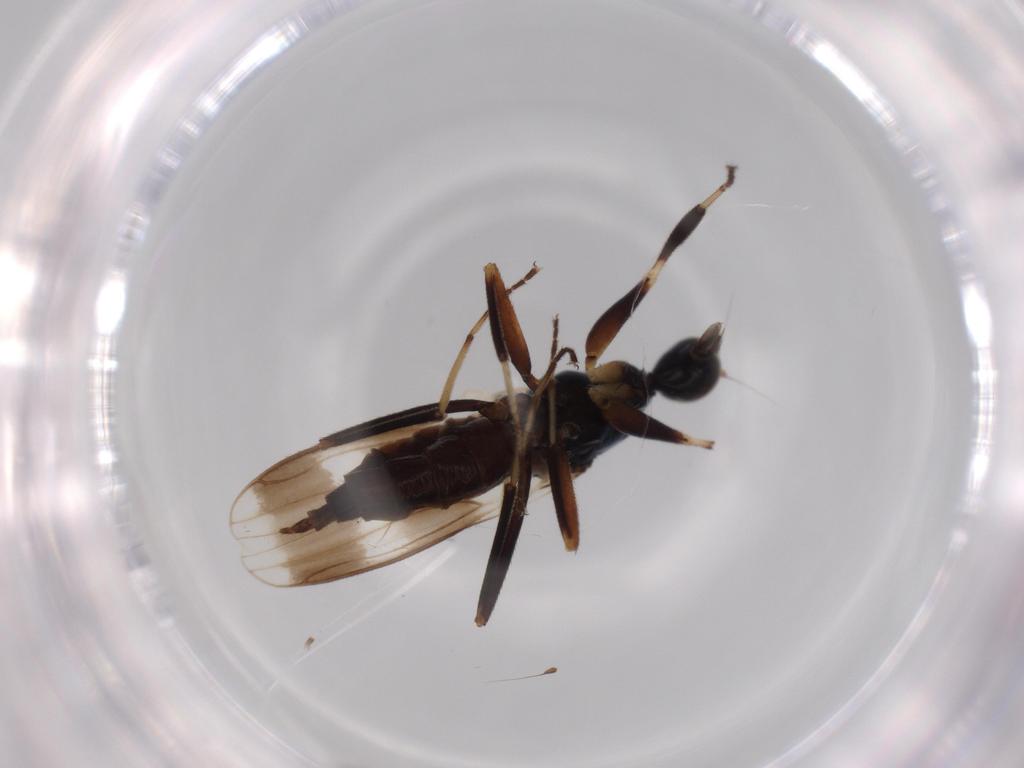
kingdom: Animalia
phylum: Arthropoda
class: Insecta
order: Diptera
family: Hybotidae
